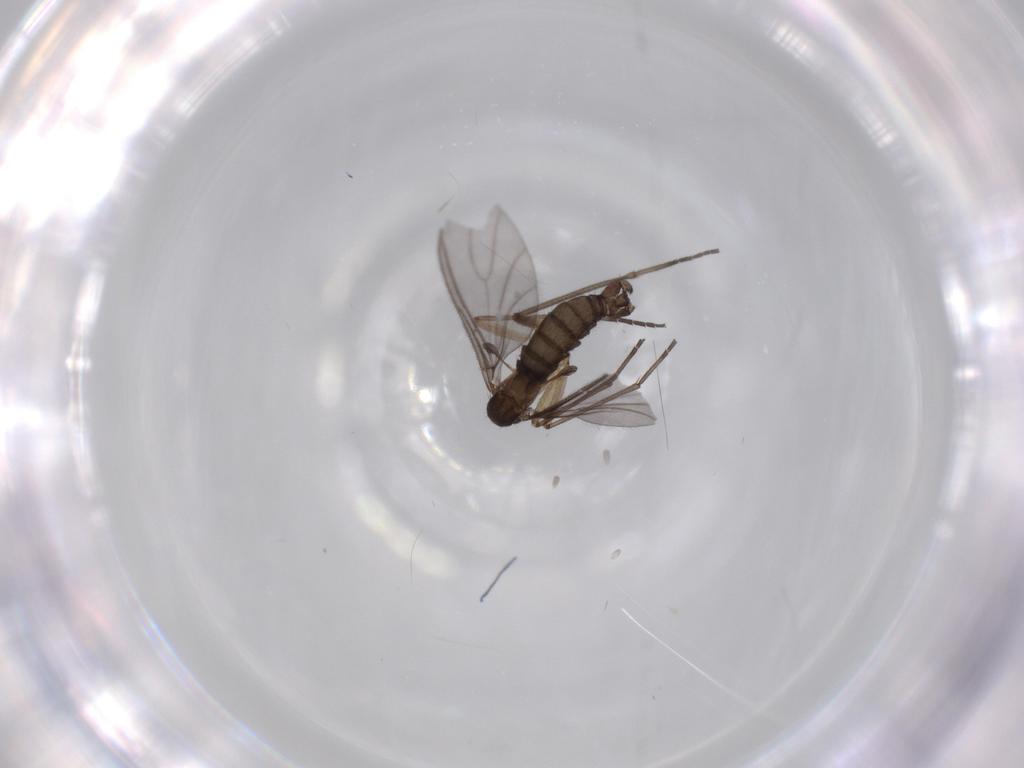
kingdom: Animalia
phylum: Arthropoda
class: Insecta
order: Diptera
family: Sciaridae
